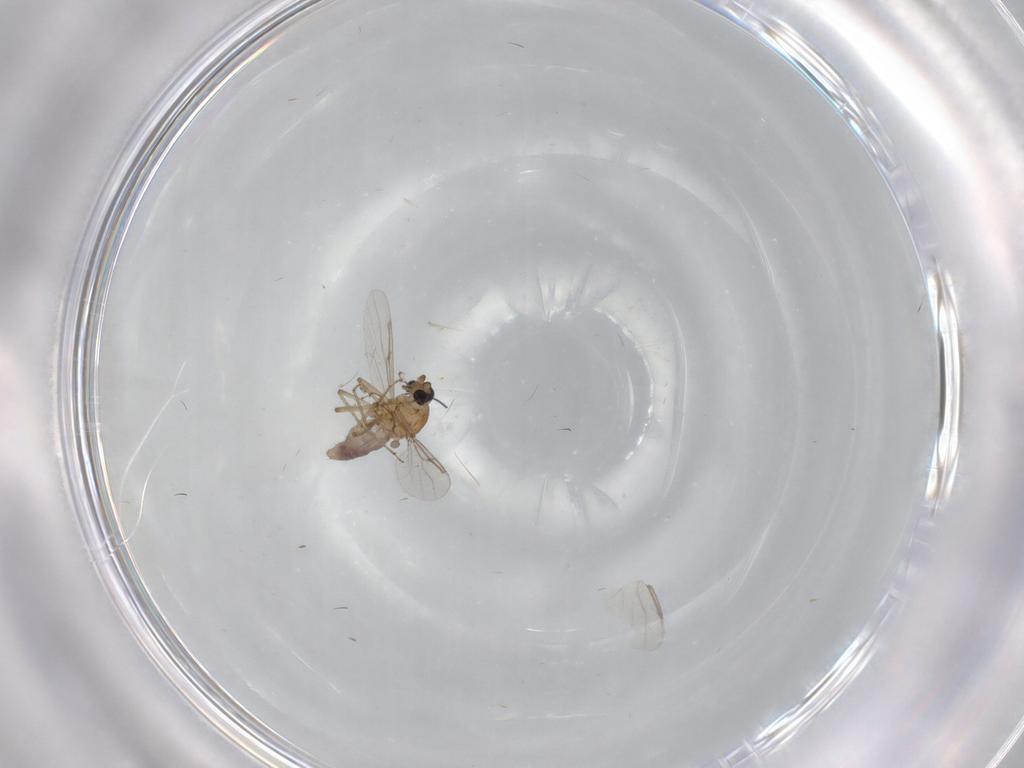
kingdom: Animalia
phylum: Arthropoda
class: Insecta
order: Diptera
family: Ceratopogonidae
